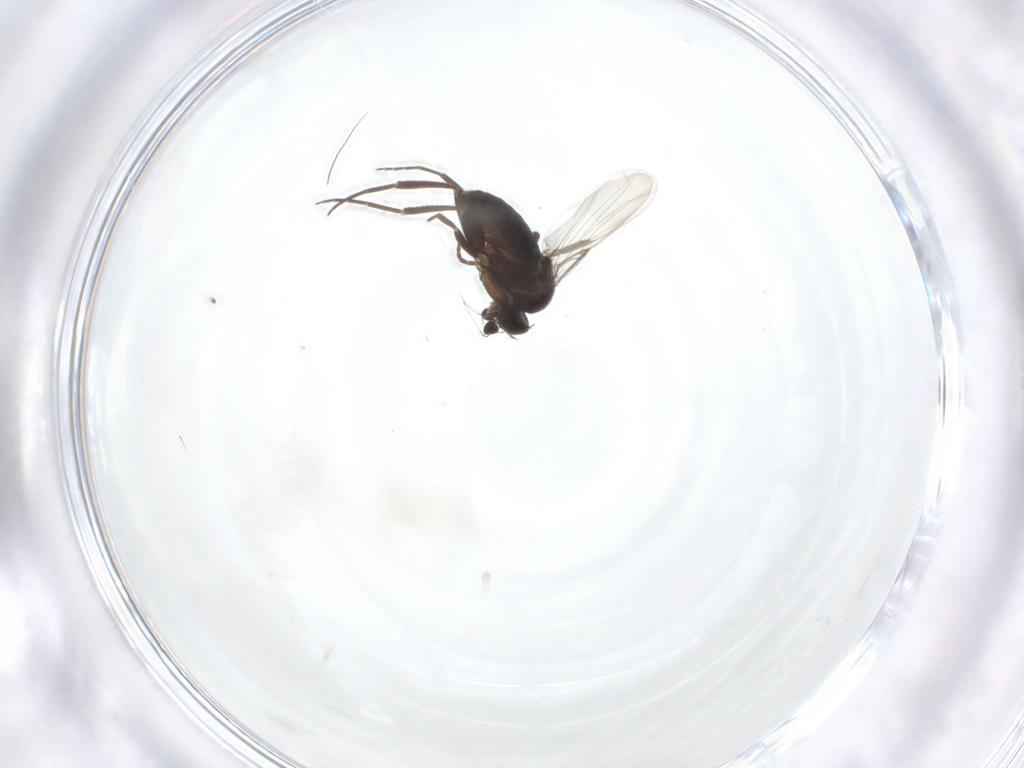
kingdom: Animalia
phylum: Arthropoda
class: Insecta
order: Diptera
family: Phoridae
